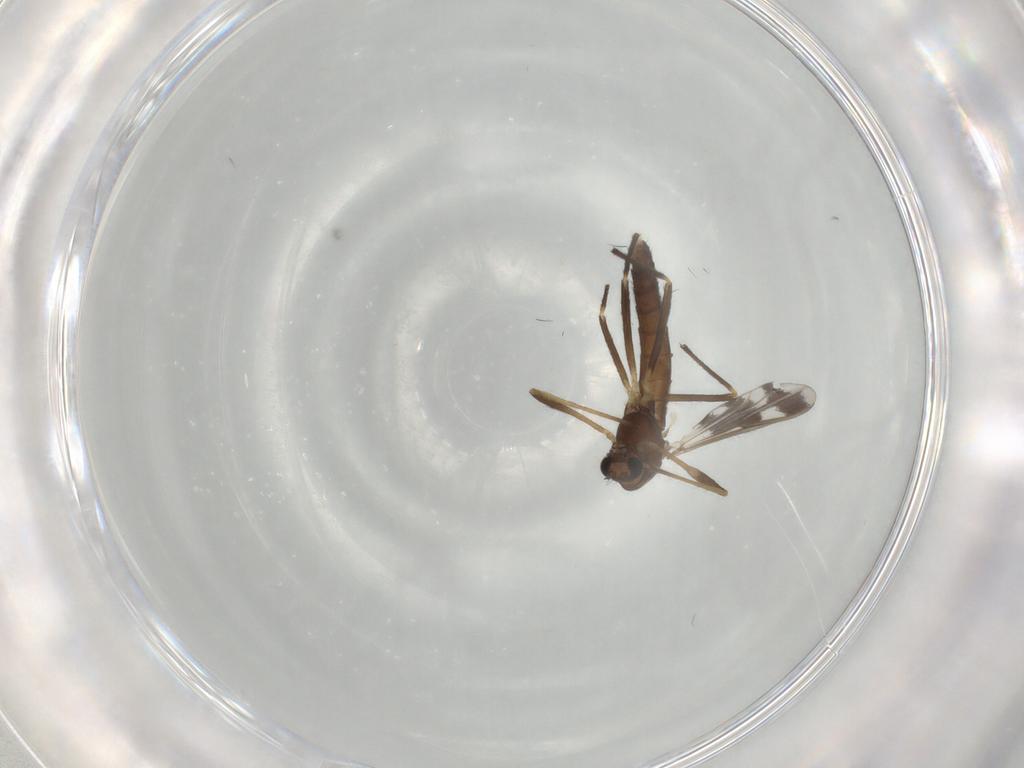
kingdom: Animalia
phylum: Arthropoda
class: Insecta
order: Diptera
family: Chironomidae
